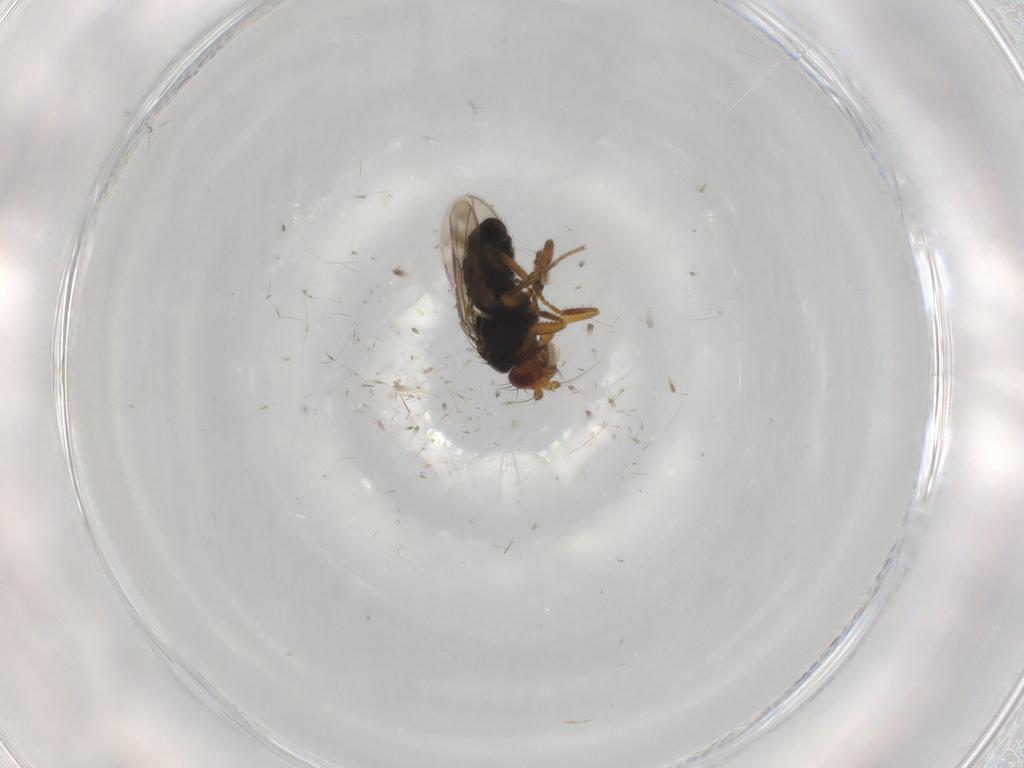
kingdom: Animalia
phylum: Arthropoda
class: Insecta
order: Diptera
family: Sphaeroceridae
